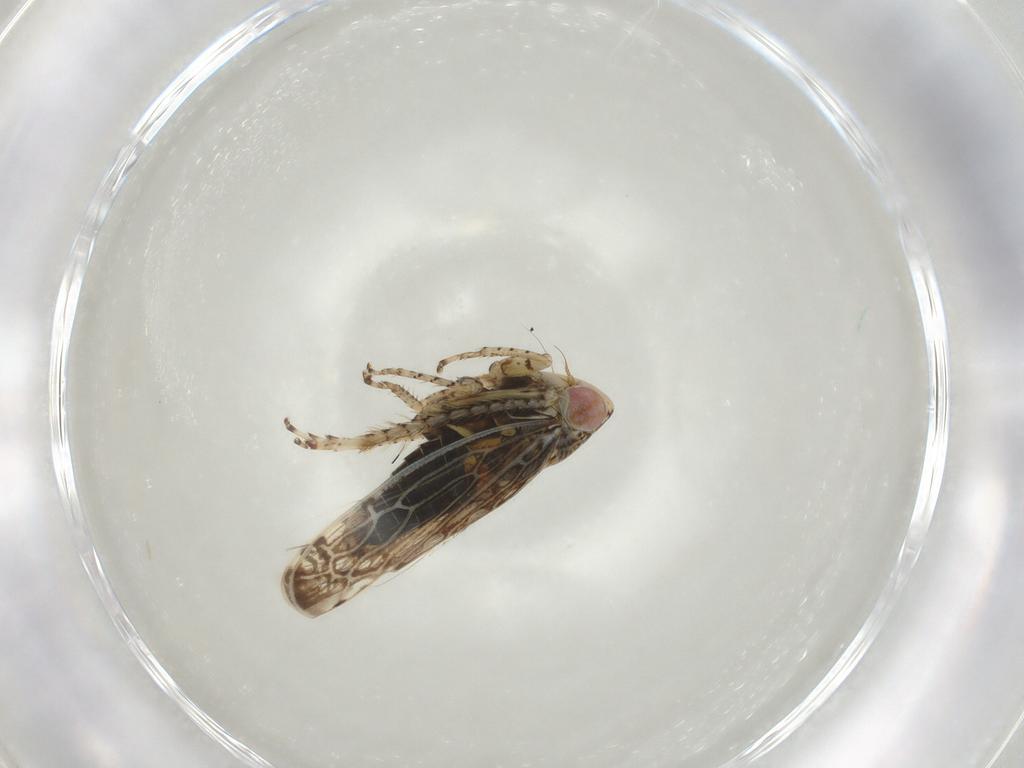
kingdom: Animalia
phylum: Arthropoda
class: Insecta
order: Hemiptera
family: Cicadellidae
